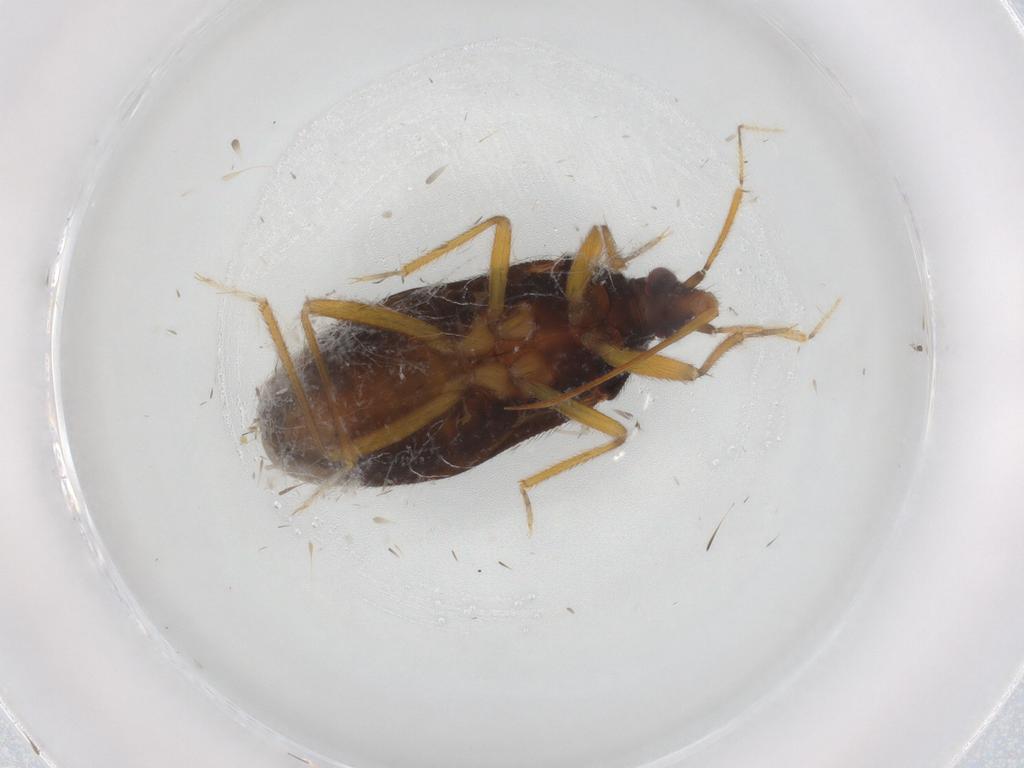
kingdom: Animalia
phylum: Arthropoda
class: Insecta
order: Hemiptera
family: Anthocoridae
